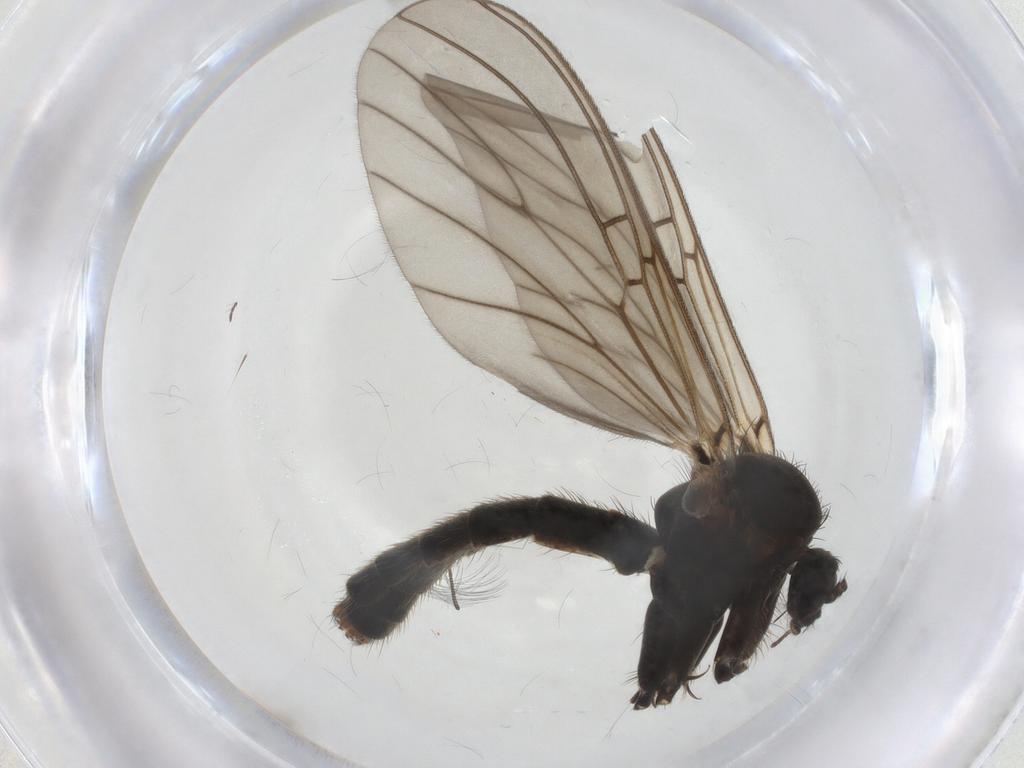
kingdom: Animalia
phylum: Arthropoda
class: Insecta
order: Diptera
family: Mycetophilidae
